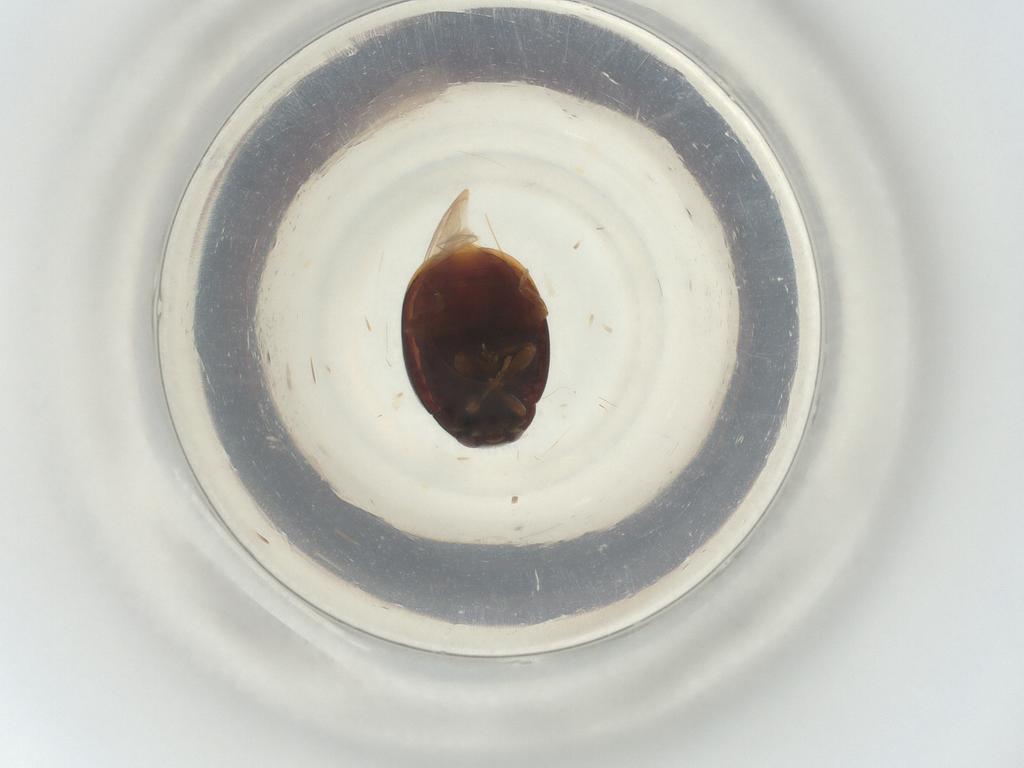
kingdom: Animalia
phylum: Arthropoda
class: Insecta
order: Coleoptera
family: Coccinellidae
